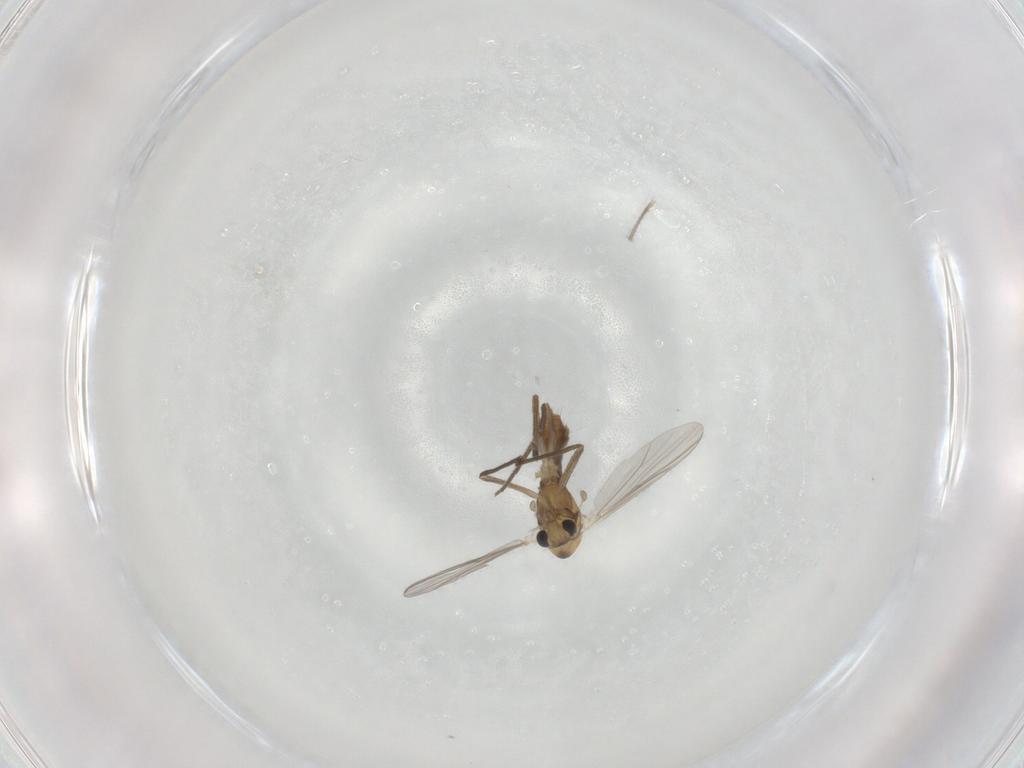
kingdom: Animalia
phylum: Arthropoda
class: Insecta
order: Diptera
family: Chironomidae
